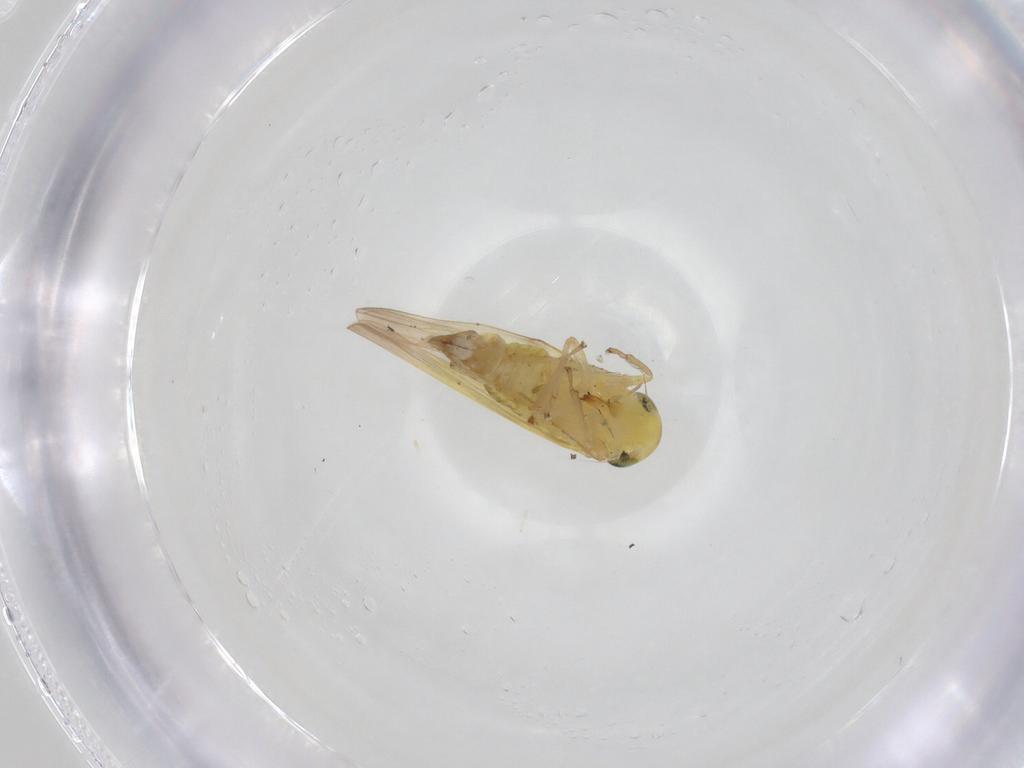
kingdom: Animalia
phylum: Arthropoda
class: Insecta
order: Hemiptera
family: Cicadellidae
